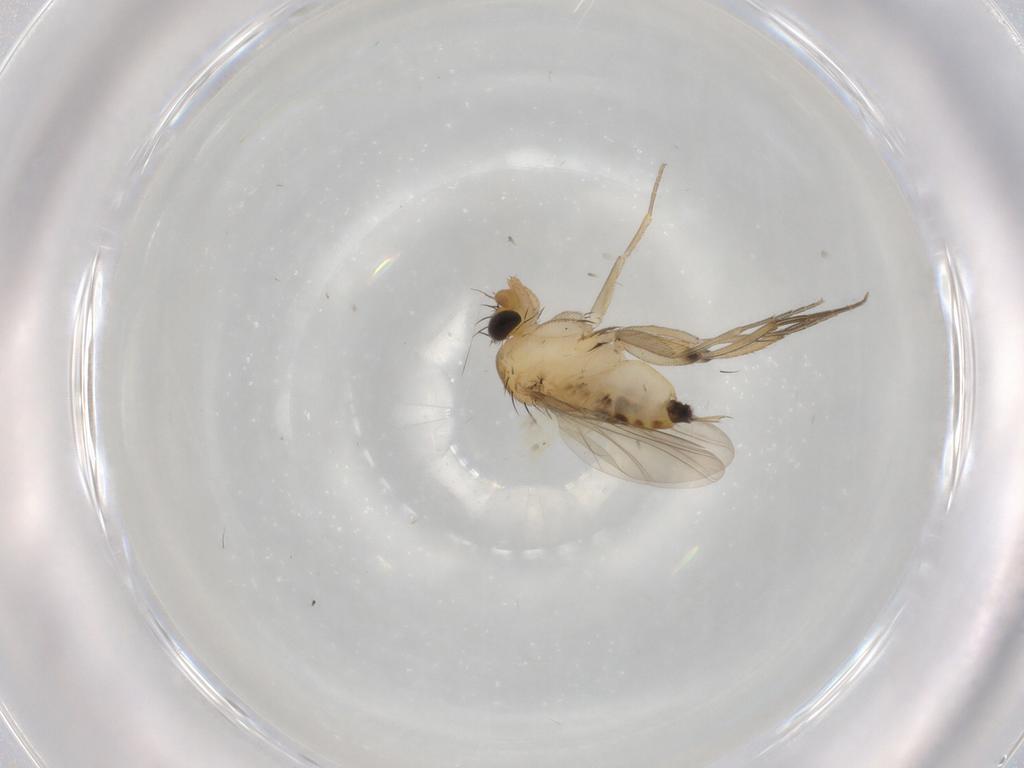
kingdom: Animalia
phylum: Arthropoda
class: Insecta
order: Diptera
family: Phoridae
